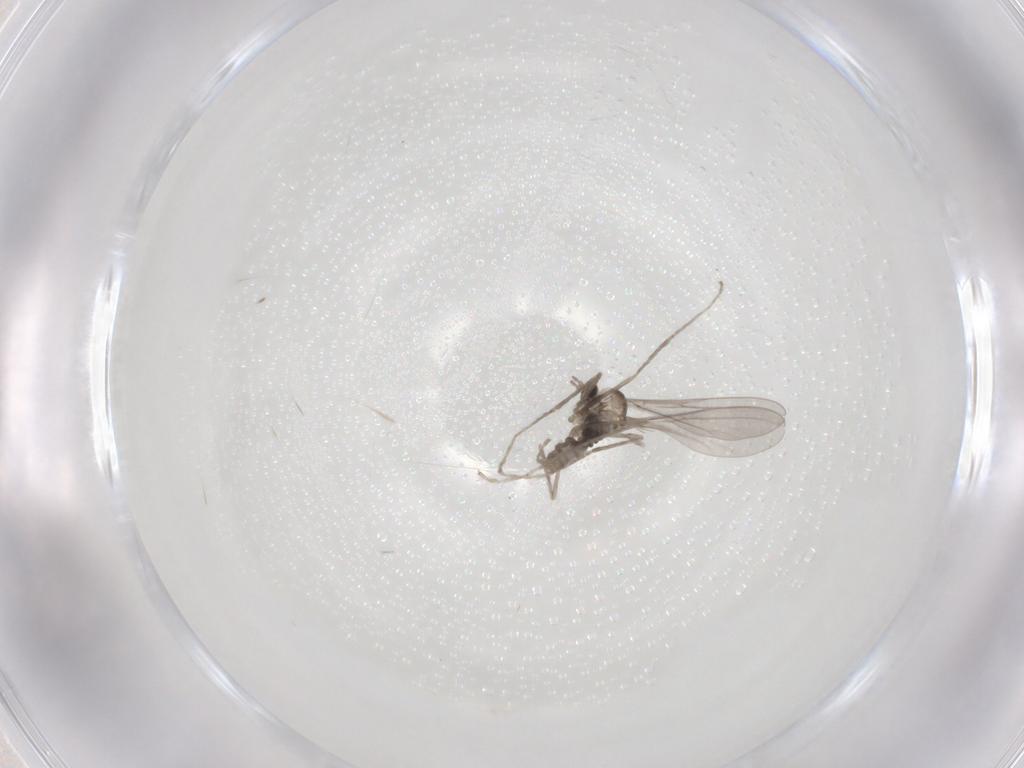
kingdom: Animalia
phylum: Arthropoda
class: Insecta
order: Diptera
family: Cecidomyiidae
